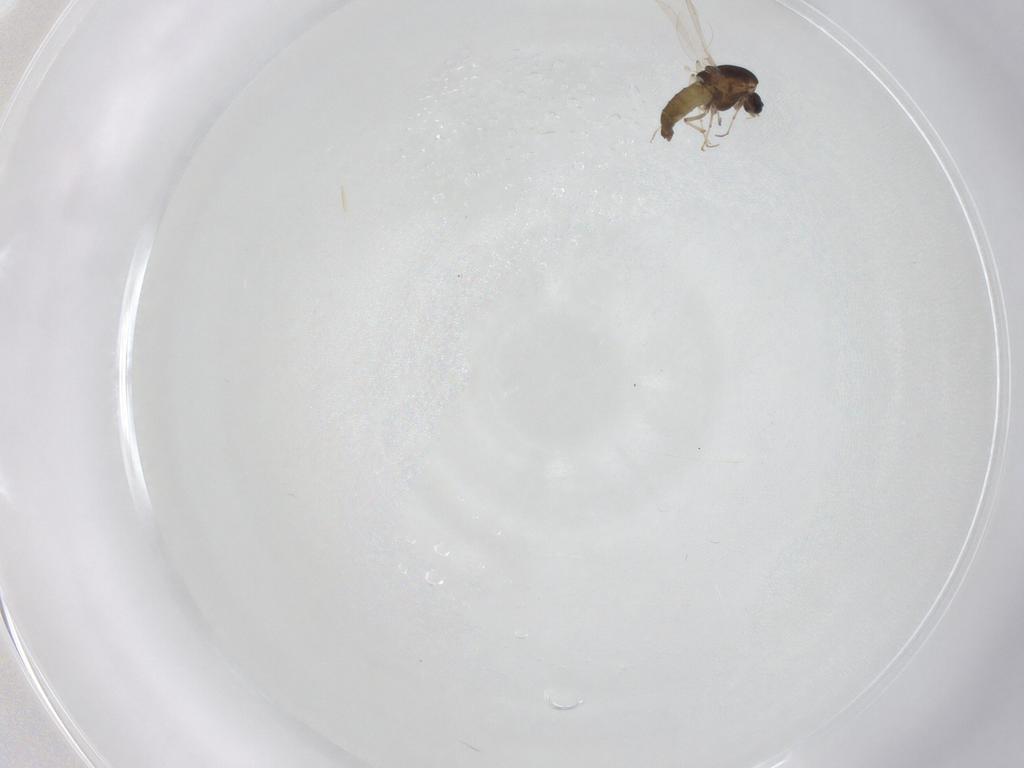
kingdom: Animalia
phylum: Arthropoda
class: Insecta
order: Diptera
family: Chironomidae
